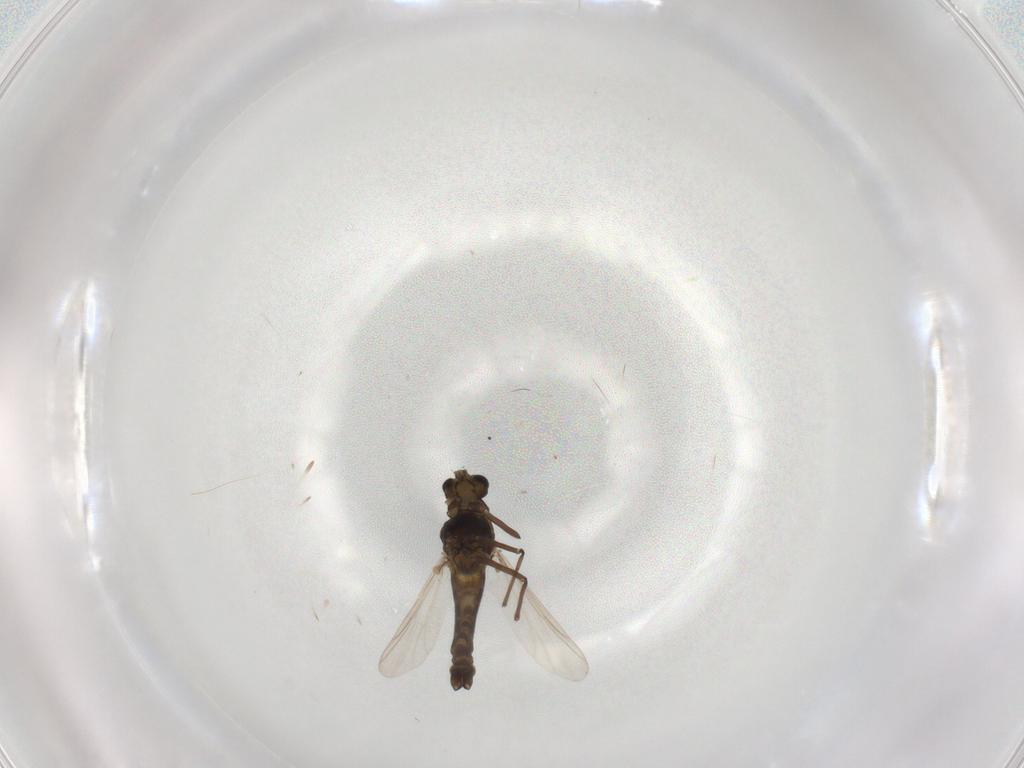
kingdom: Animalia
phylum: Arthropoda
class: Insecta
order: Diptera
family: Chironomidae
